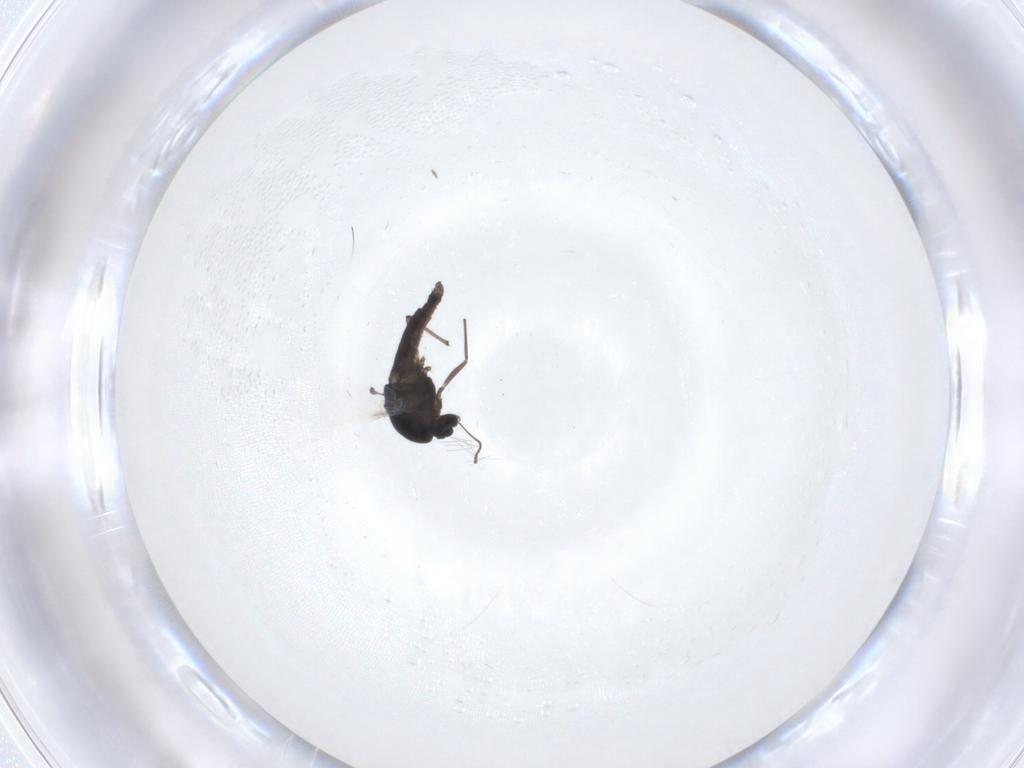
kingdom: Animalia
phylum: Arthropoda
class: Insecta
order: Diptera
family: Chironomidae
